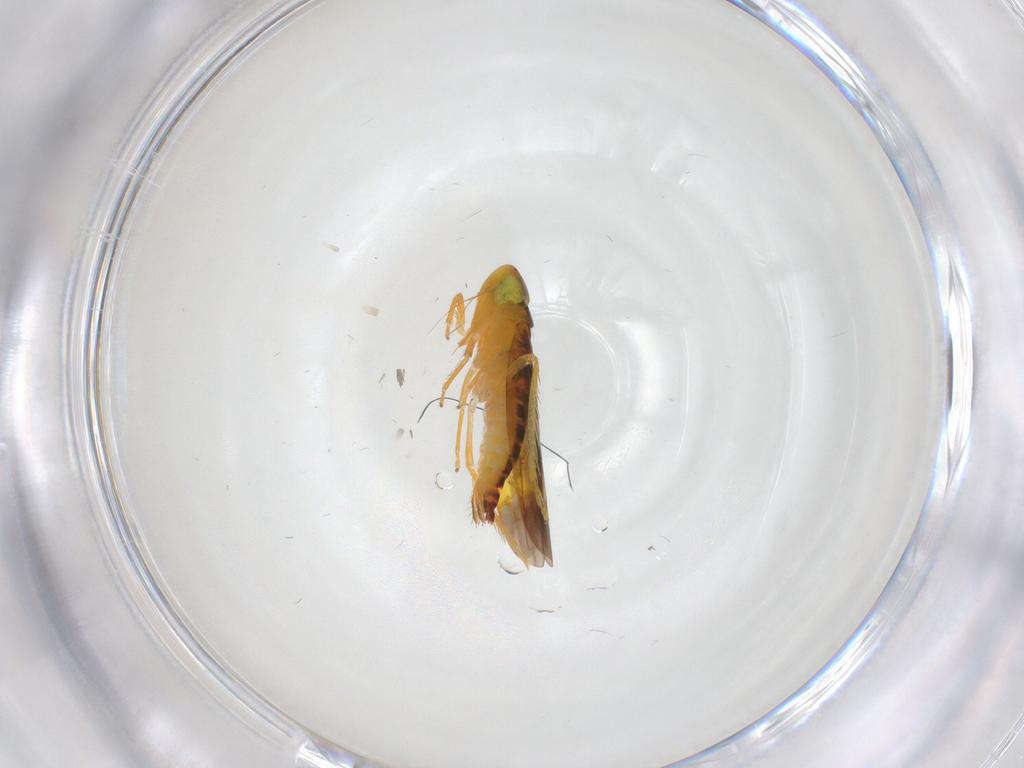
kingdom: Animalia
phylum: Arthropoda
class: Insecta
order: Hemiptera
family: Cicadellidae
